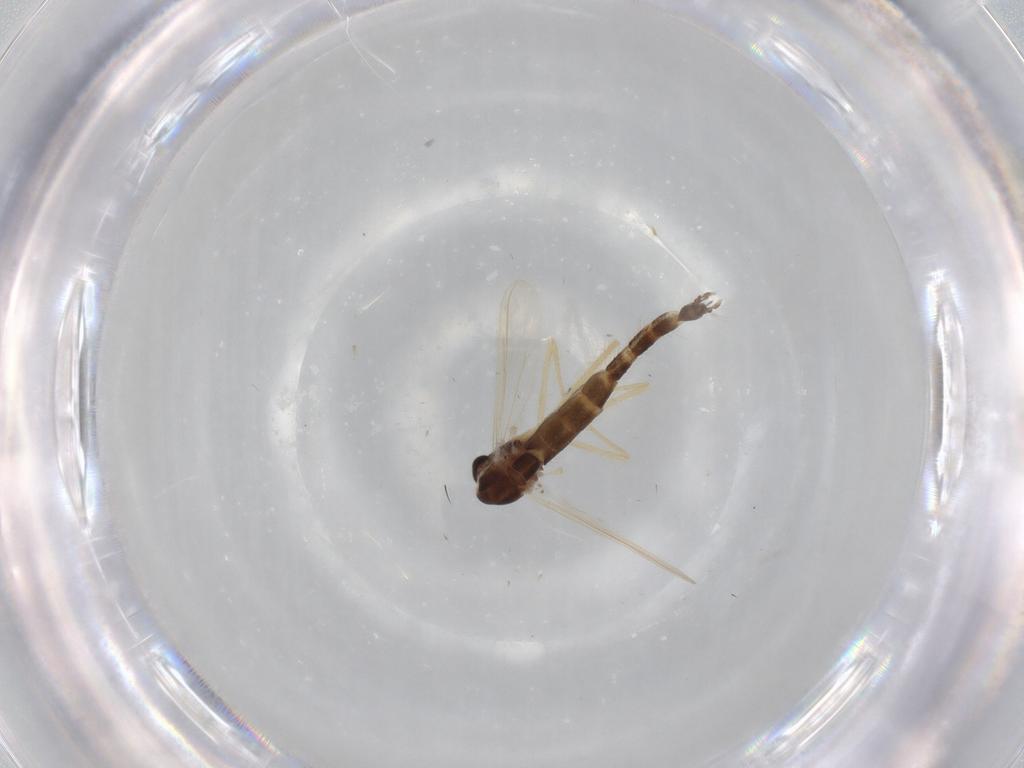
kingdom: Animalia
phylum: Arthropoda
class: Insecta
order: Diptera
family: Chironomidae
